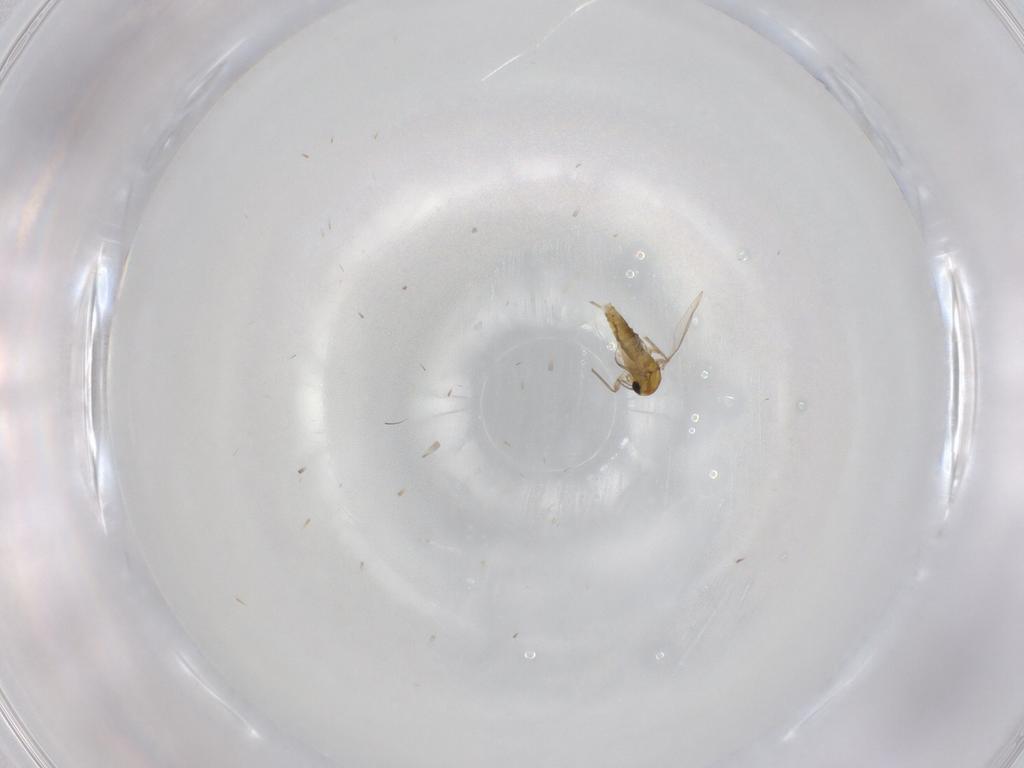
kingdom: Animalia
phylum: Arthropoda
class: Insecta
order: Diptera
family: Chironomidae
